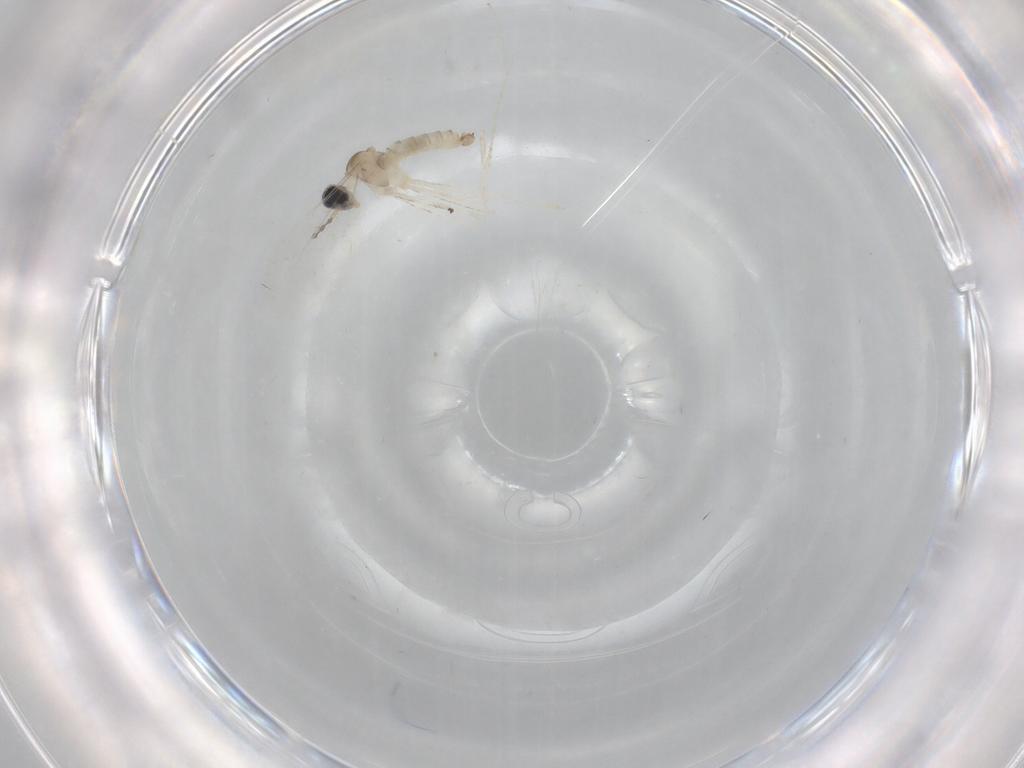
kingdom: Animalia
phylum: Arthropoda
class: Insecta
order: Diptera
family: Cecidomyiidae
